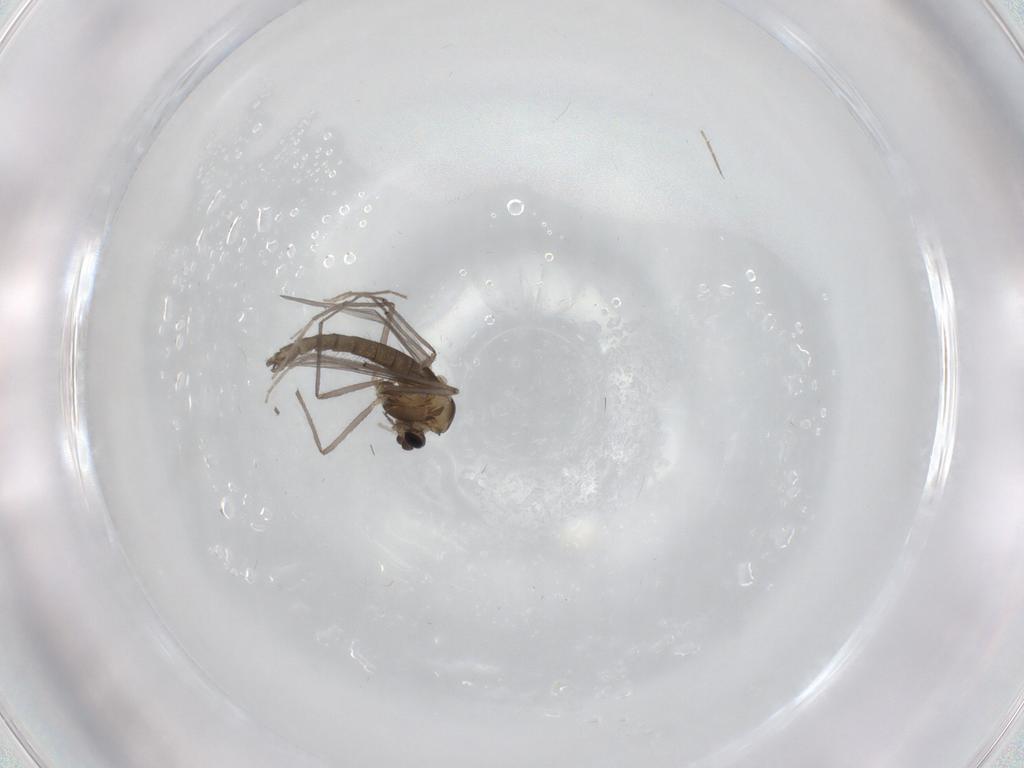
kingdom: Animalia
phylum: Arthropoda
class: Insecta
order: Diptera
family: Chironomidae
